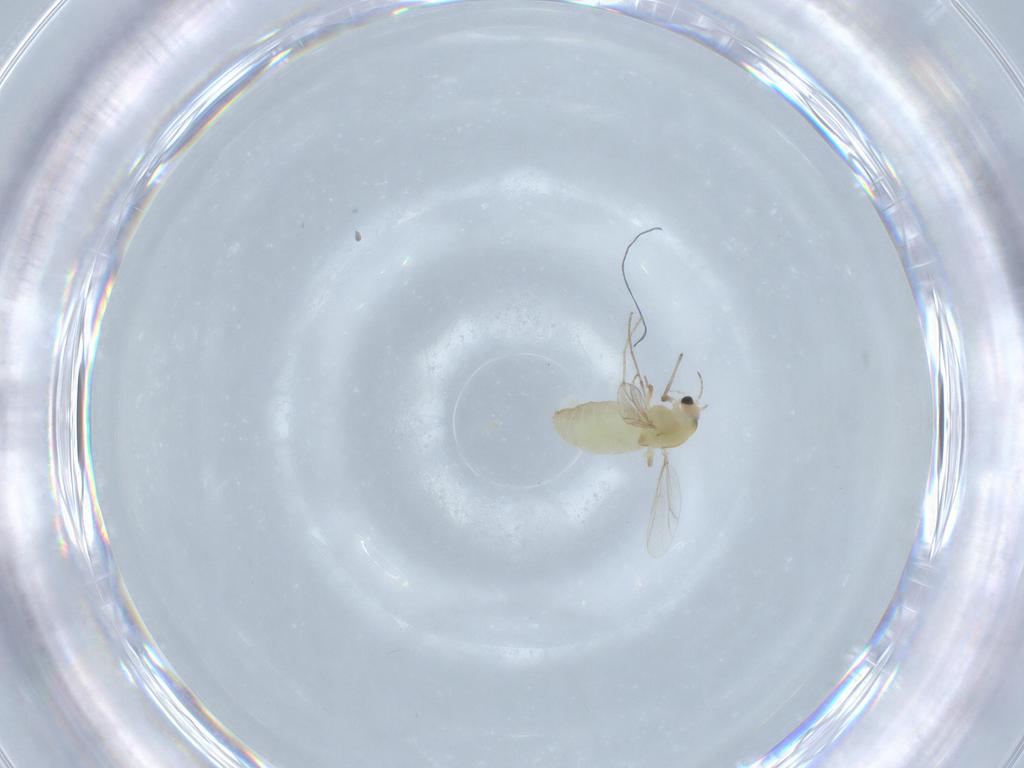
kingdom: Animalia
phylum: Arthropoda
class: Insecta
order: Diptera
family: Chironomidae
